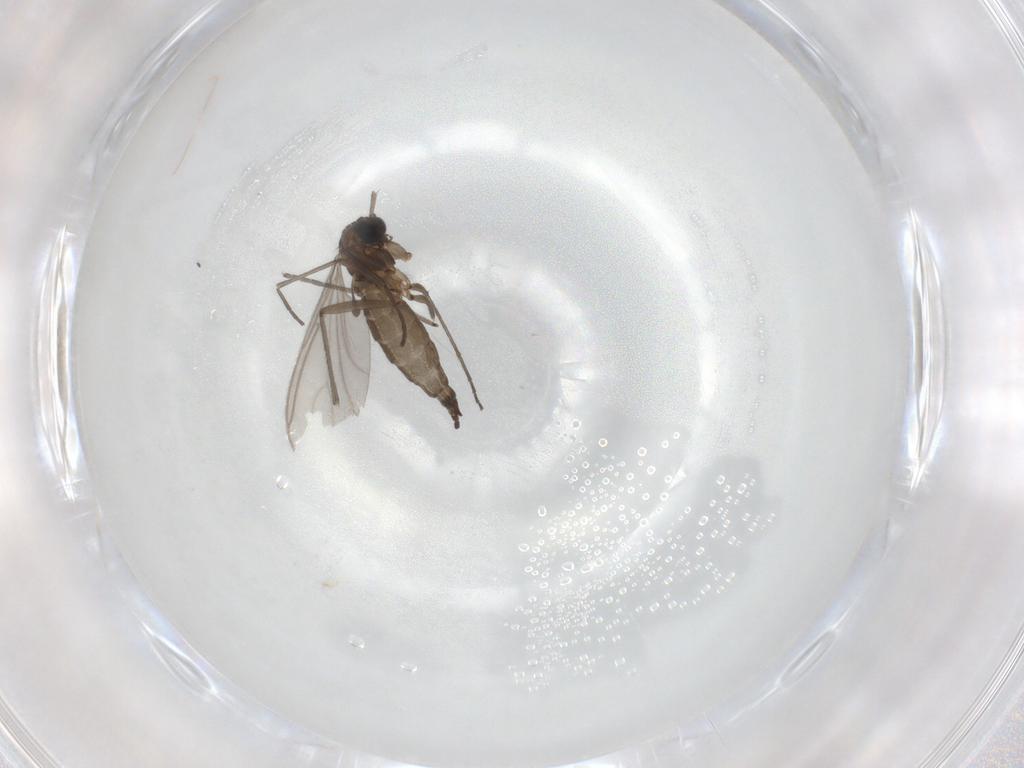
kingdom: Animalia
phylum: Arthropoda
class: Insecta
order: Diptera
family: Sciaridae
